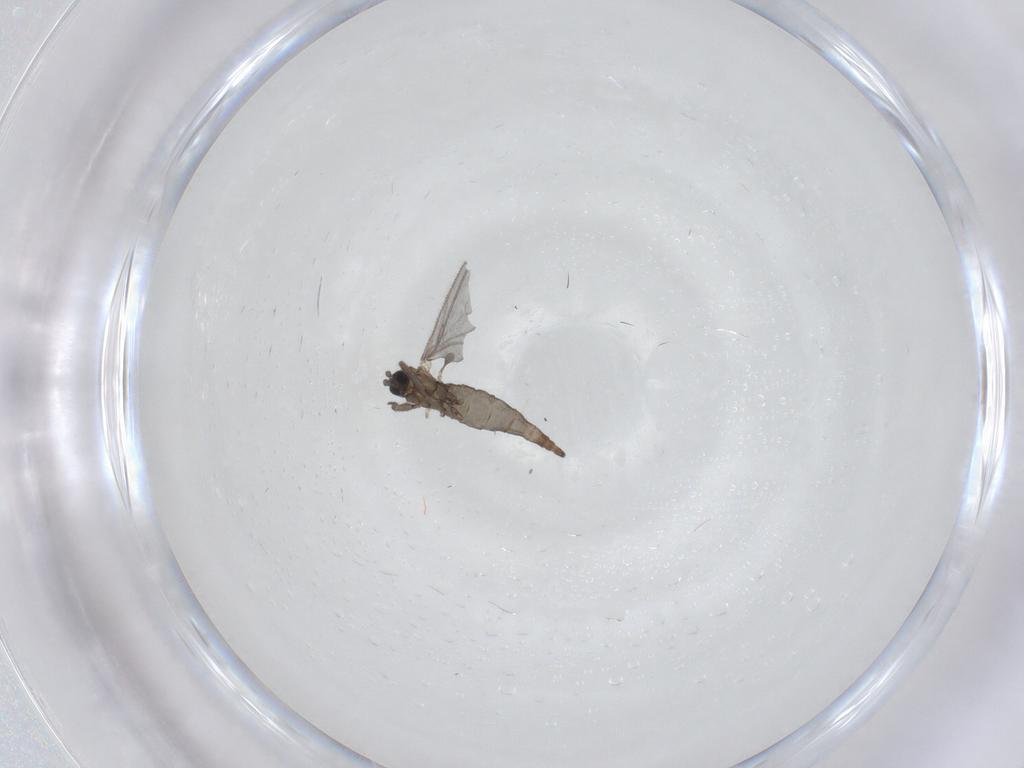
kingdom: Animalia
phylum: Arthropoda
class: Insecta
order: Diptera
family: Sciaridae
